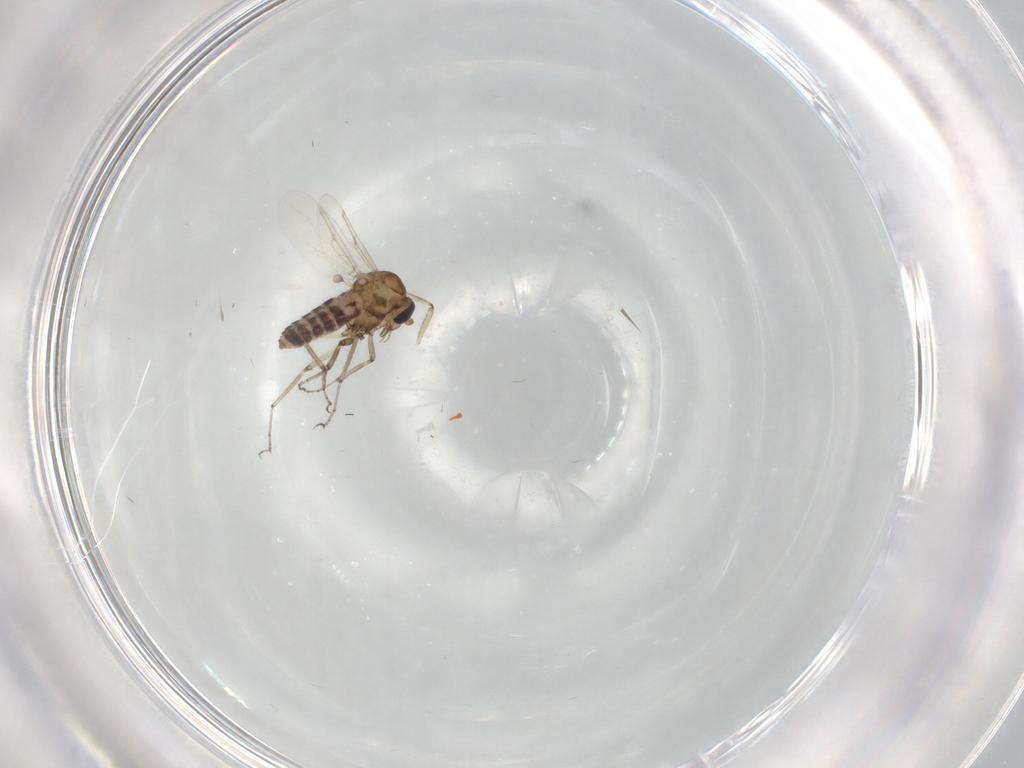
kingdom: Animalia
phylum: Arthropoda
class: Insecta
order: Diptera
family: Ceratopogonidae
